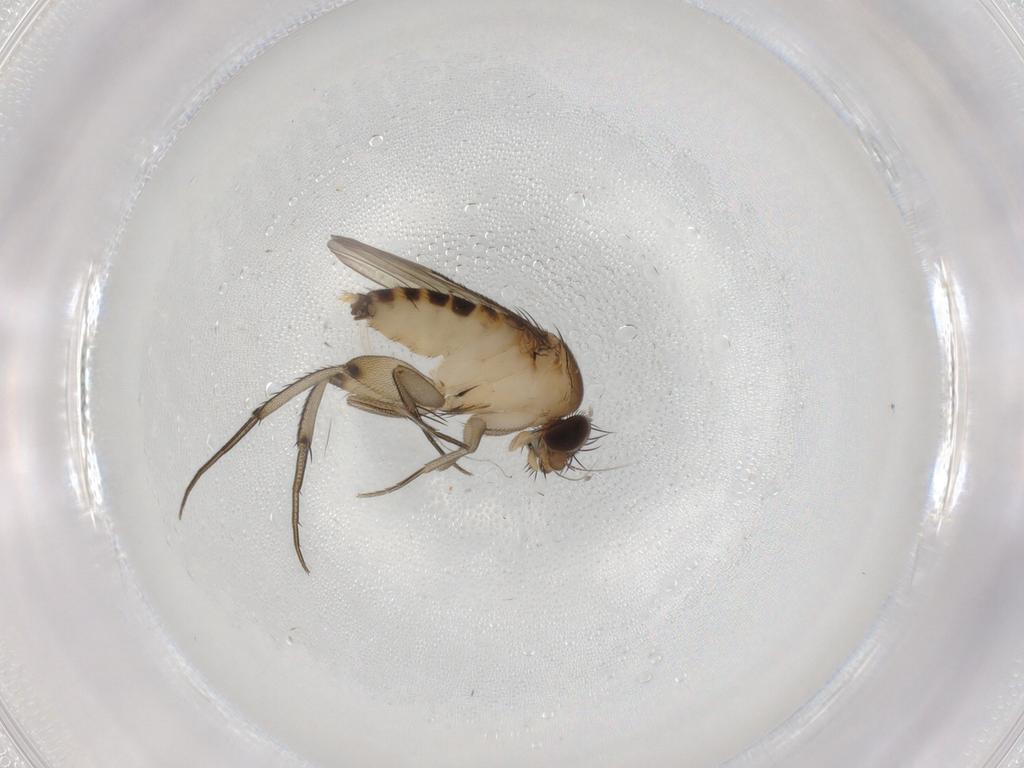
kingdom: Animalia
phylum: Arthropoda
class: Insecta
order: Diptera
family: Phoridae
